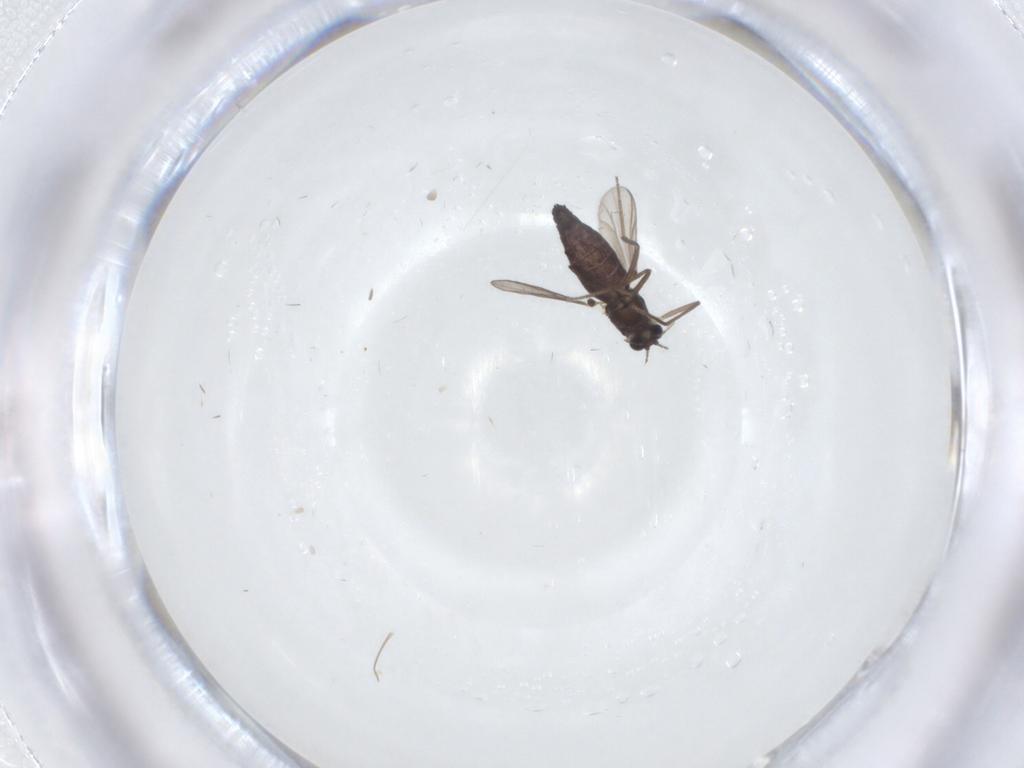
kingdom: Animalia
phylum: Arthropoda
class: Insecta
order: Diptera
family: Chironomidae
